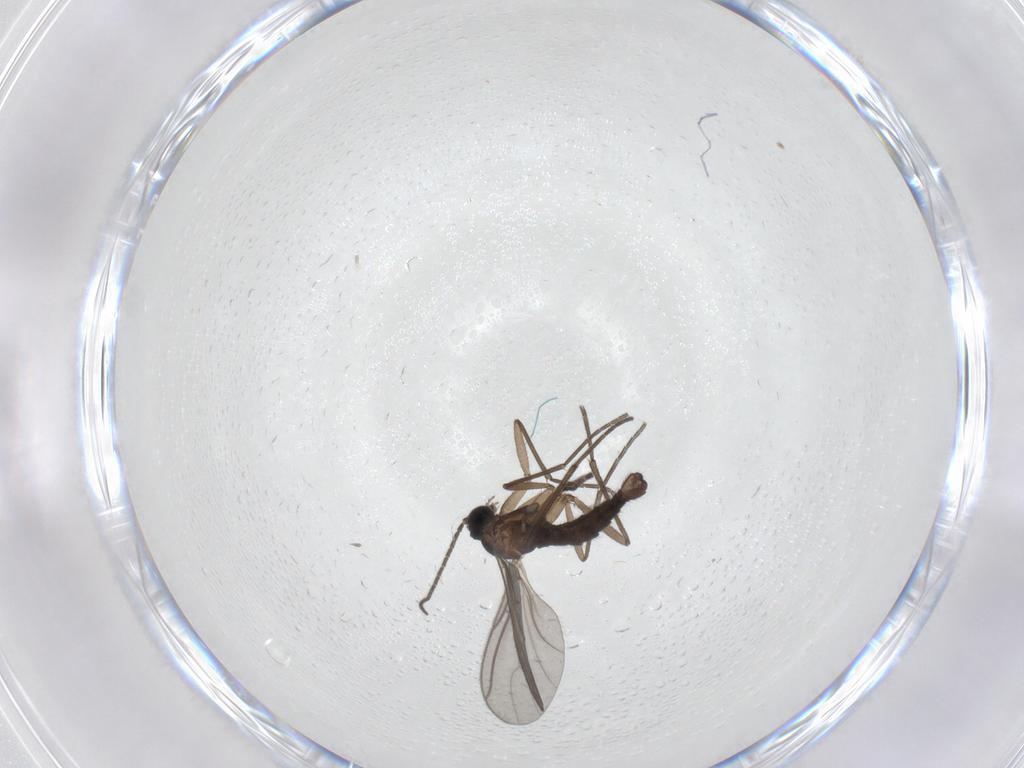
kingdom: Animalia
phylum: Arthropoda
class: Insecta
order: Diptera
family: Sciaridae
